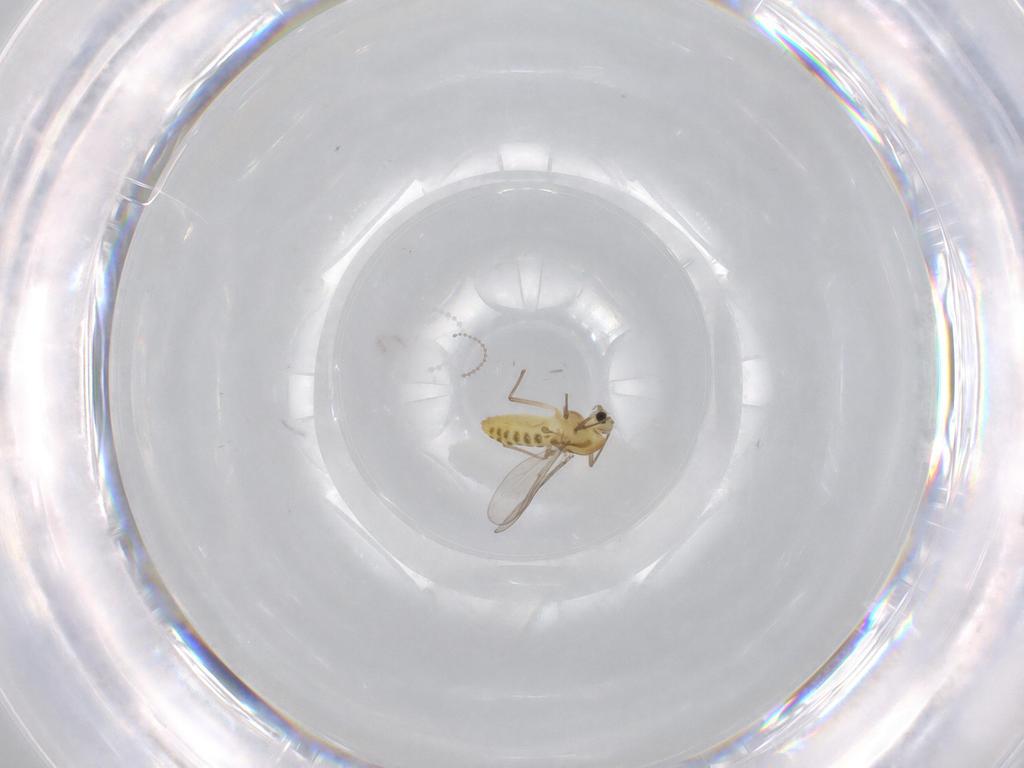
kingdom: Animalia
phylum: Arthropoda
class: Insecta
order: Diptera
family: Chironomidae
